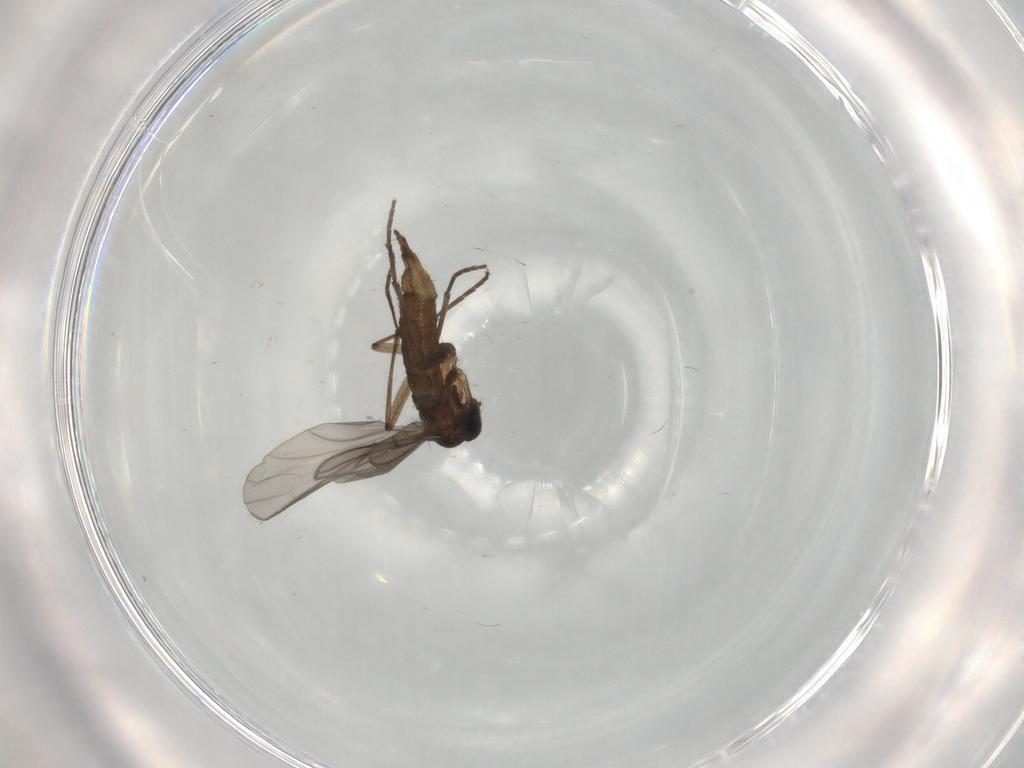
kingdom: Animalia
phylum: Arthropoda
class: Insecta
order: Diptera
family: Sciaridae
